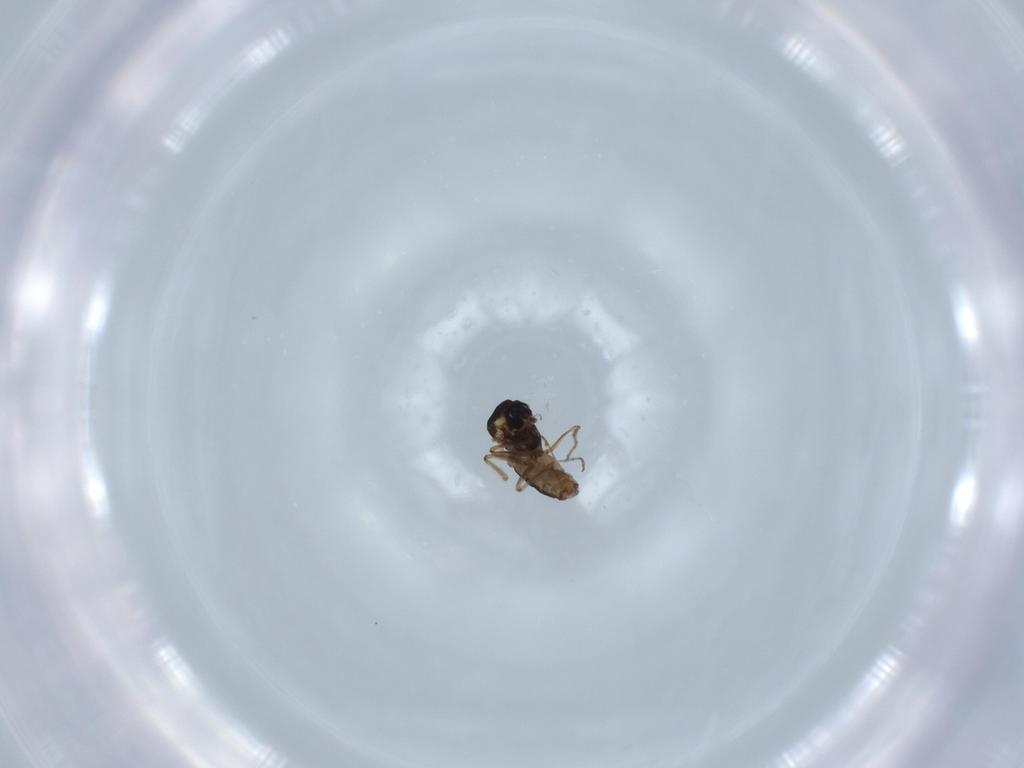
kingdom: Animalia
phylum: Arthropoda
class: Insecta
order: Diptera
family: Ceratopogonidae
